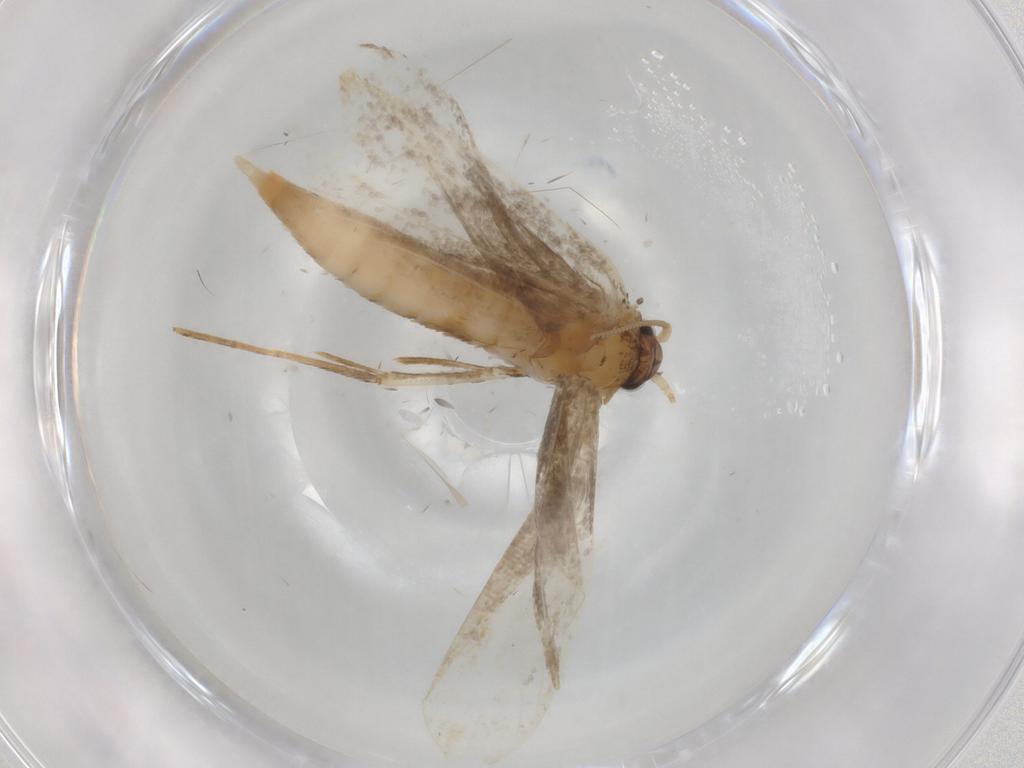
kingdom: Animalia
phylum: Arthropoda
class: Insecta
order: Lepidoptera
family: Tineidae
